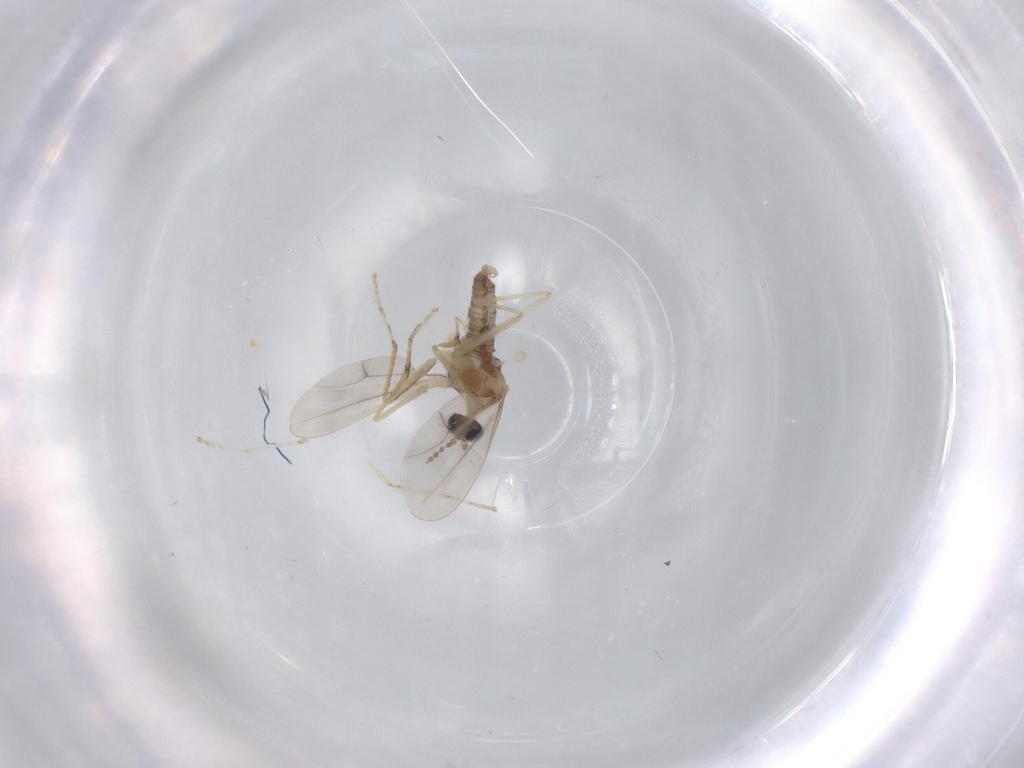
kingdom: Animalia
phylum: Arthropoda
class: Insecta
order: Diptera
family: Cecidomyiidae
